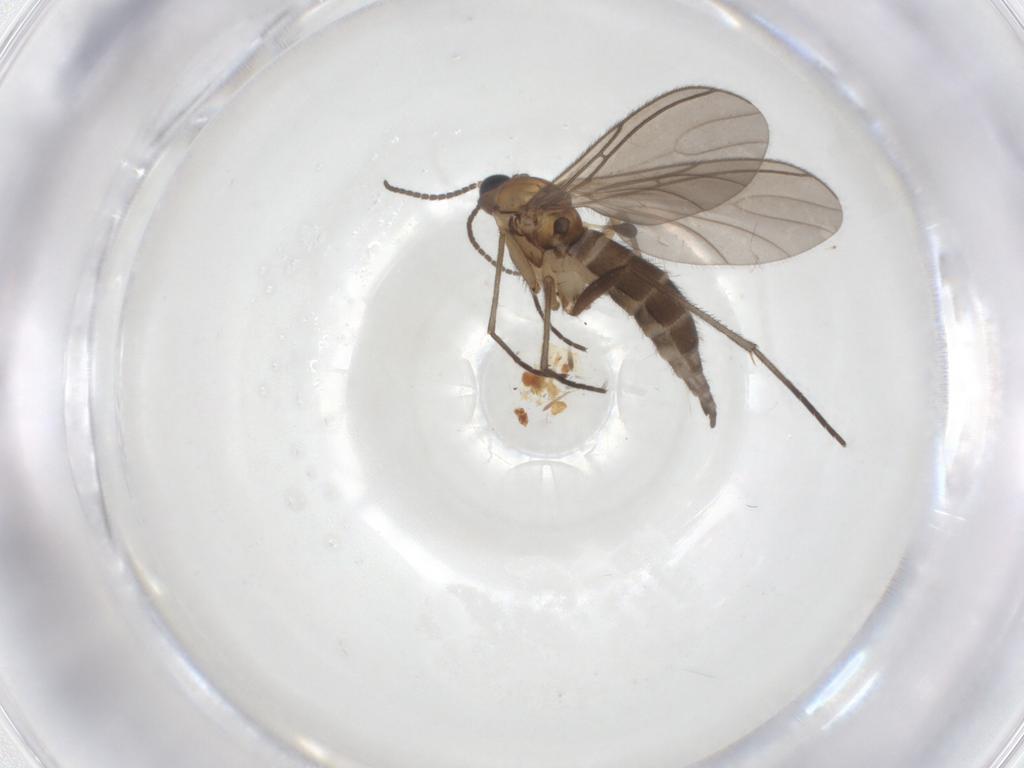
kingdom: Animalia
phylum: Arthropoda
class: Insecta
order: Diptera
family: Sciaridae
